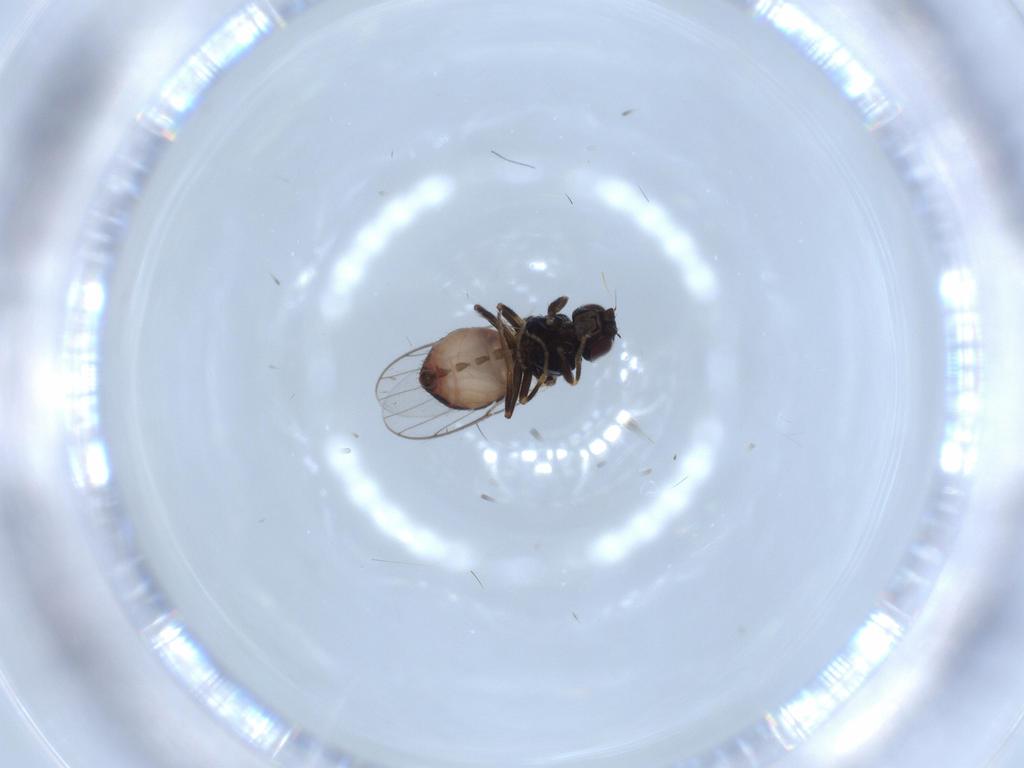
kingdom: Animalia
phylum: Arthropoda
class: Insecta
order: Diptera
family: Chloropidae
